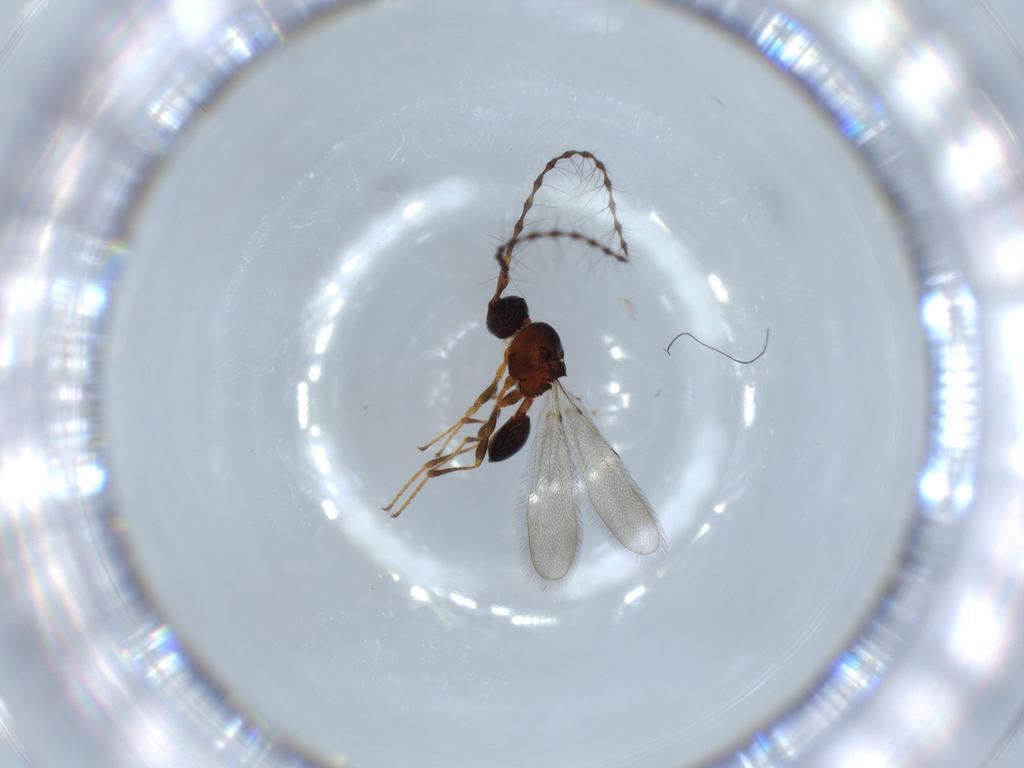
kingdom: Animalia
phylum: Arthropoda
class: Insecta
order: Hymenoptera
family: Diapriidae
